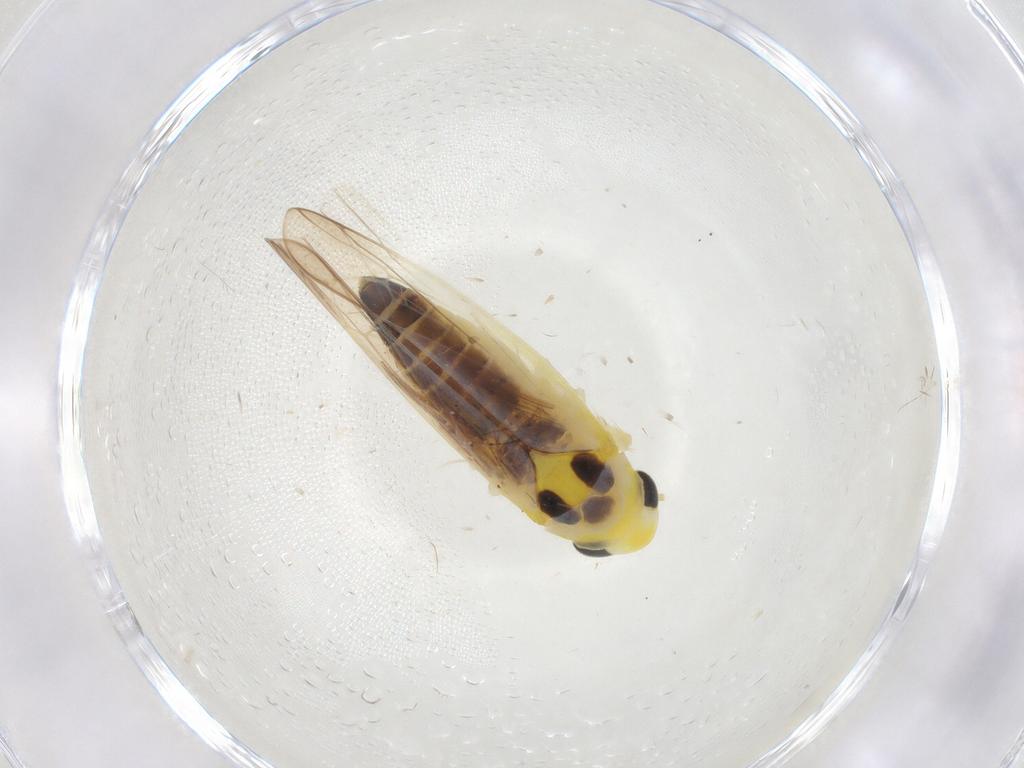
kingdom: Animalia
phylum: Arthropoda
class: Insecta
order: Hemiptera
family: Cicadellidae
